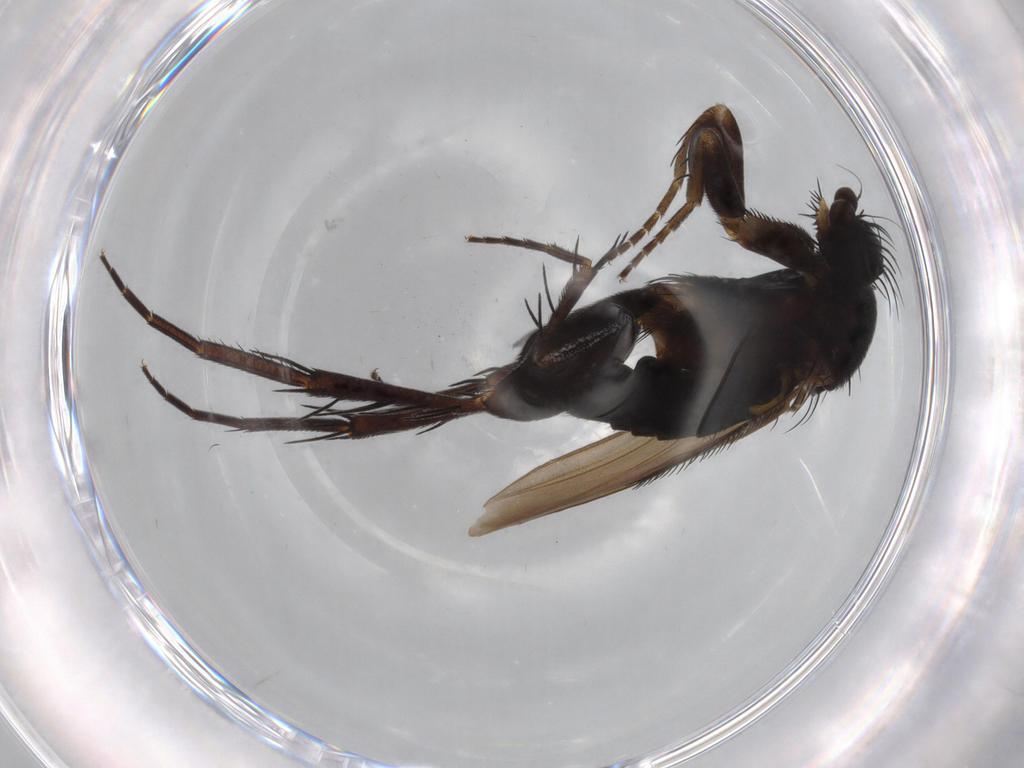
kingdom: Animalia
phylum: Arthropoda
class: Insecta
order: Diptera
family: Phoridae
